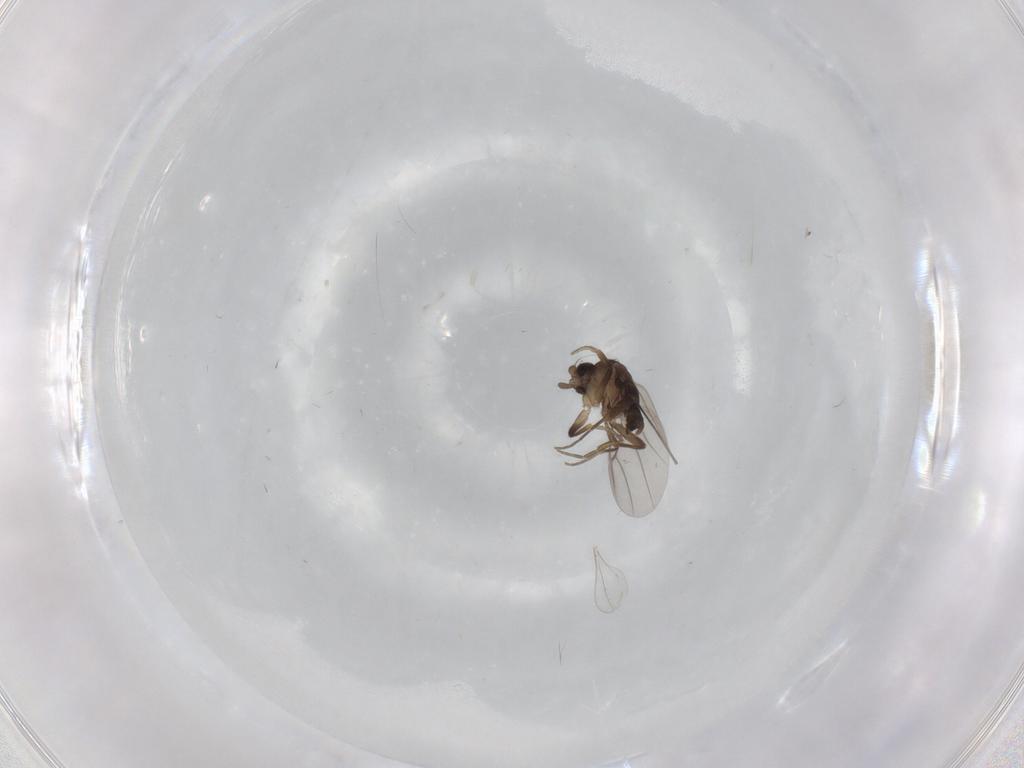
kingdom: Animalia
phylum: Arthropoda
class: Insecta
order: Diptera
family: Phoridae
